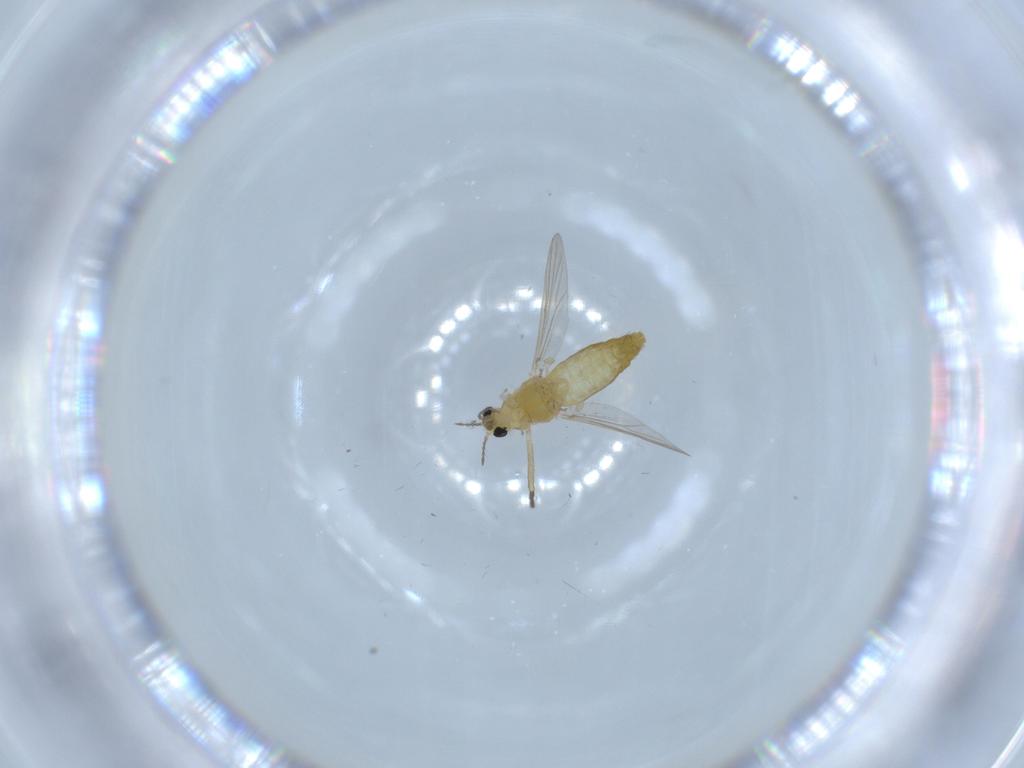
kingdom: Animalia
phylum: Arthropoda
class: Insecta
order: Diptera
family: Chironomidae
